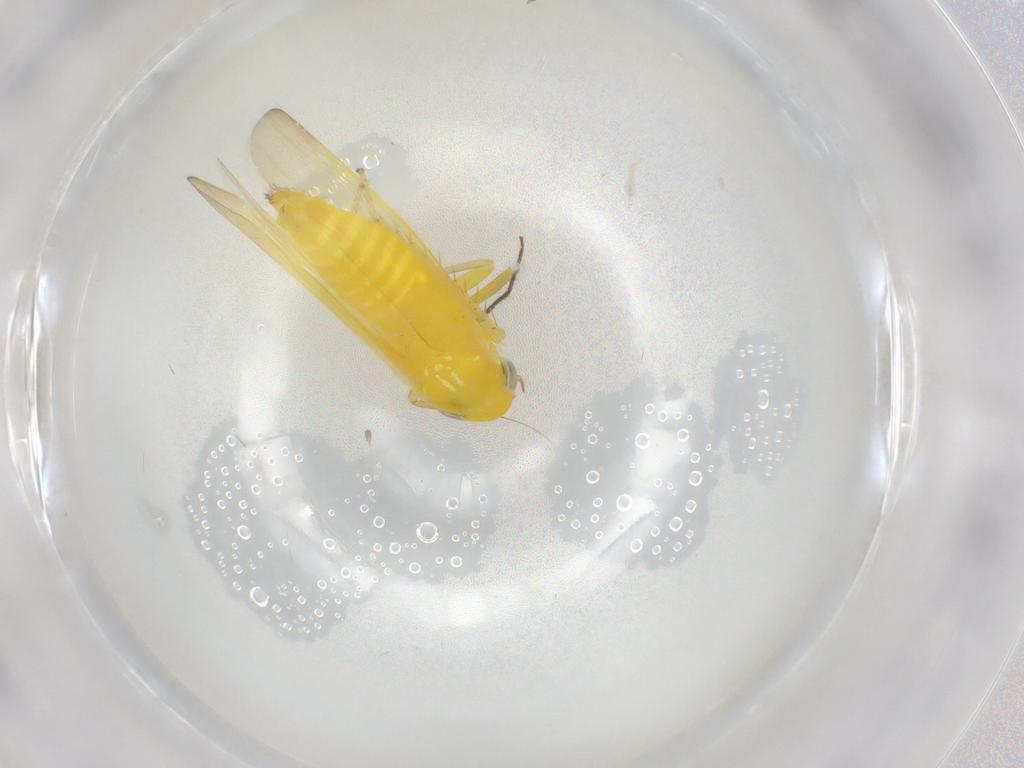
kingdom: Animalia
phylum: Arthropoda
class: Insecta
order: Hemiptera
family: Cicadellidae
